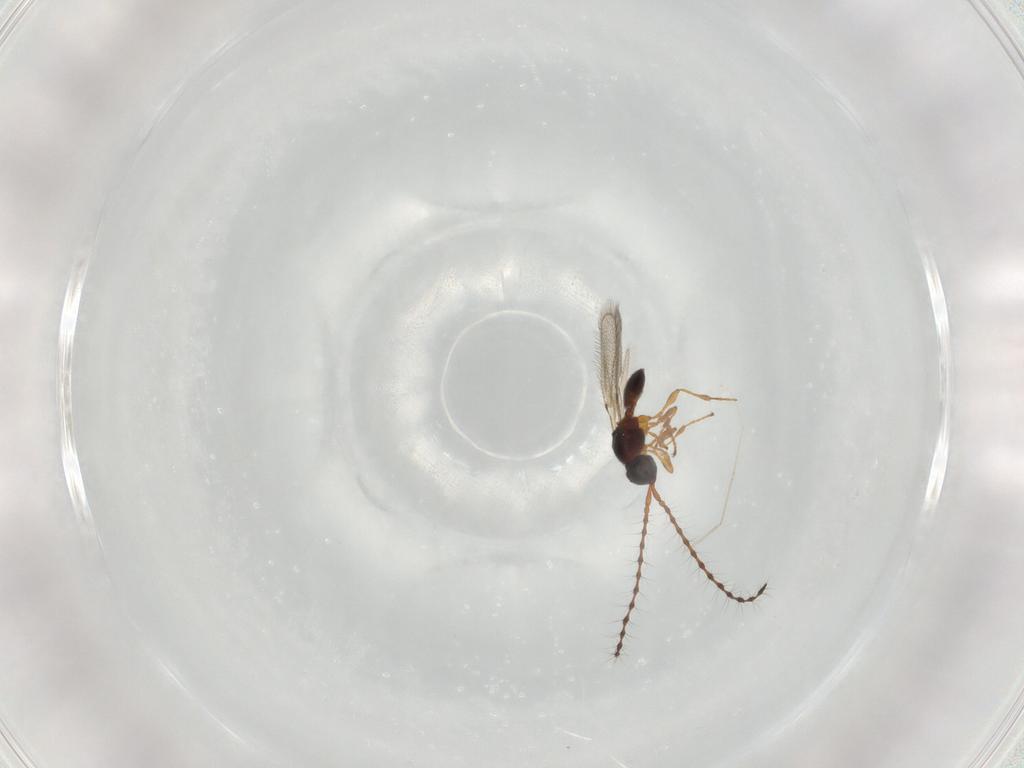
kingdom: Animalia
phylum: Arthropoda
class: Insecta
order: Hymenoptera
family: Diapriidae
